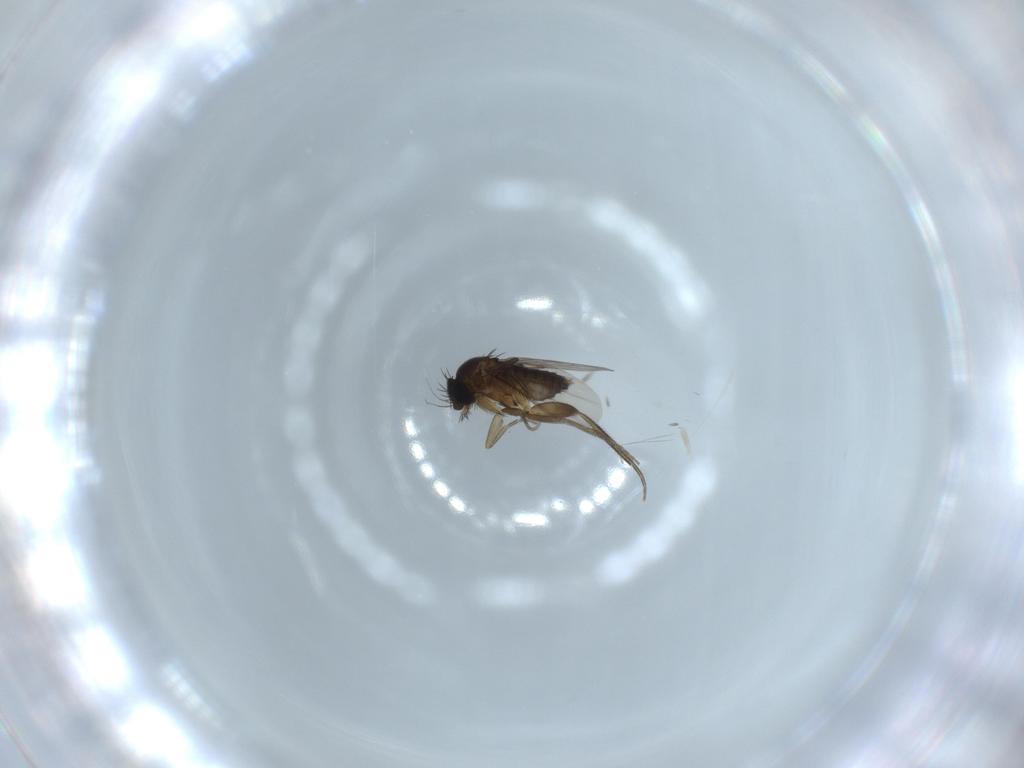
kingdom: Animalia
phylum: Arthropoda
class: Insecta
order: Diptera
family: Phoridae
